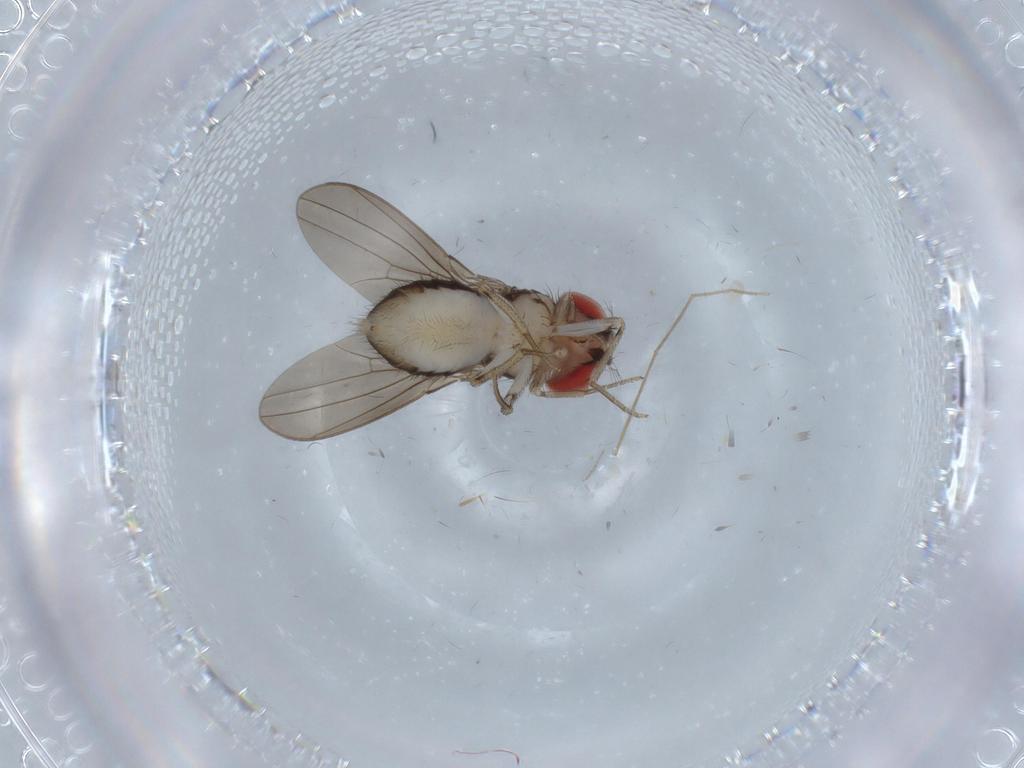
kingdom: Animalia
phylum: Arthropoda
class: Insecta
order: Diptera
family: Drosophilidae
